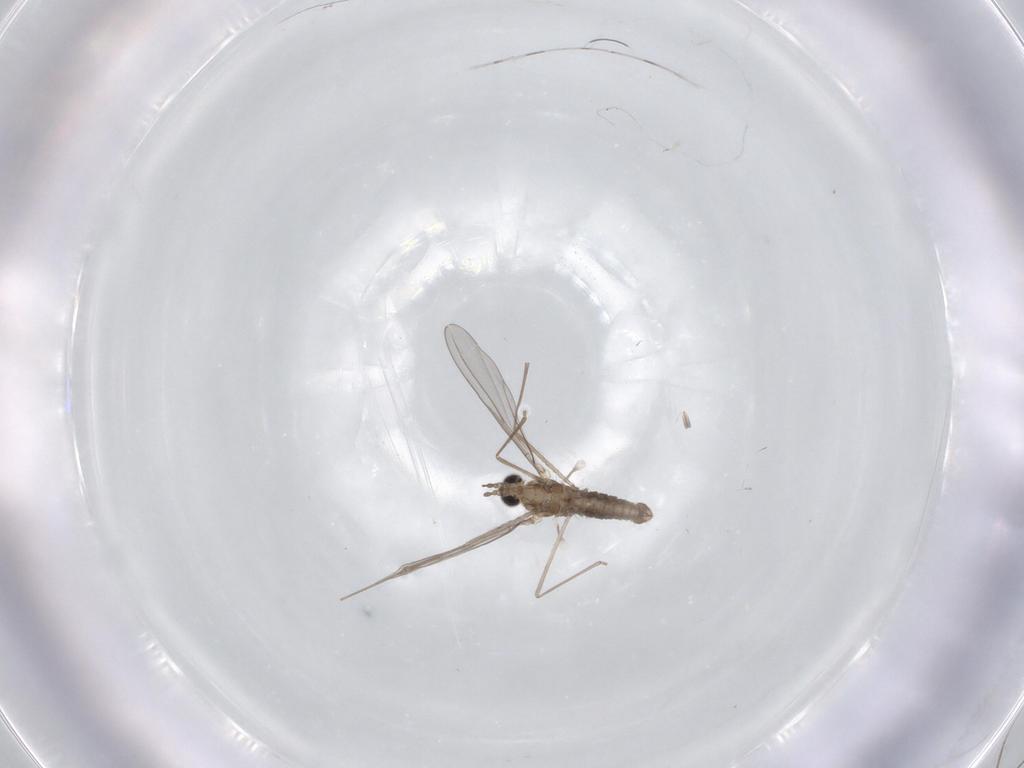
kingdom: Animalia
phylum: Arthropoda
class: Insecta
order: Diptera
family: Cecidomyiidae
